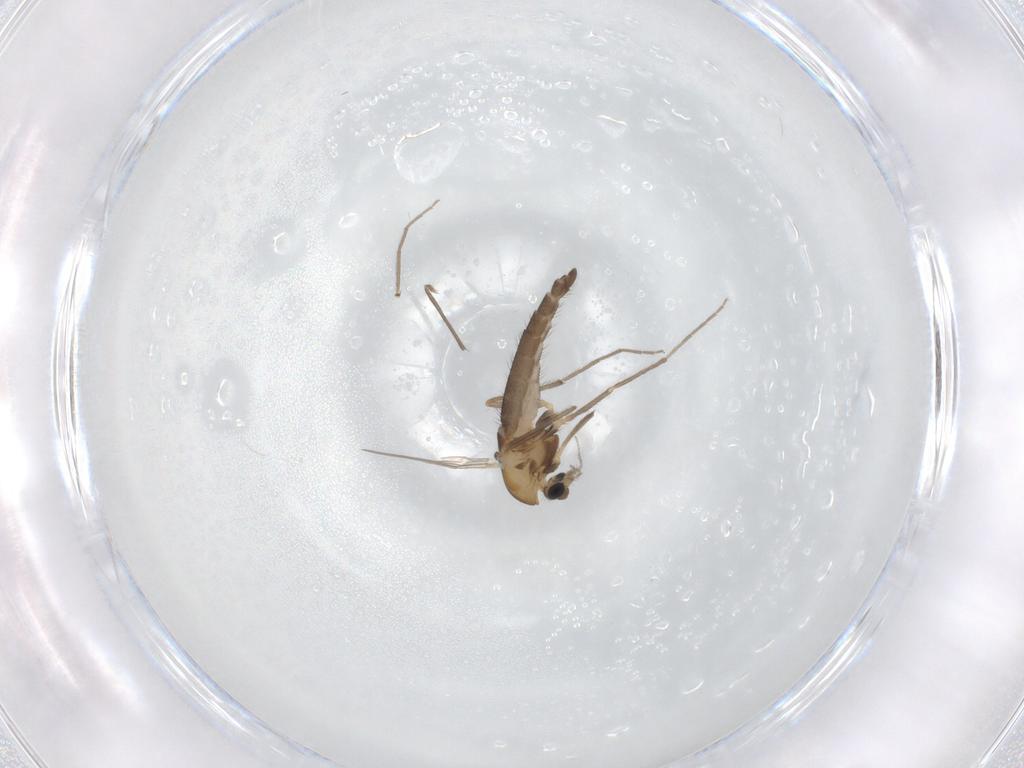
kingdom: Animalia
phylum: Arthropoda
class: Insecta
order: Diptera
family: Chironomidae
